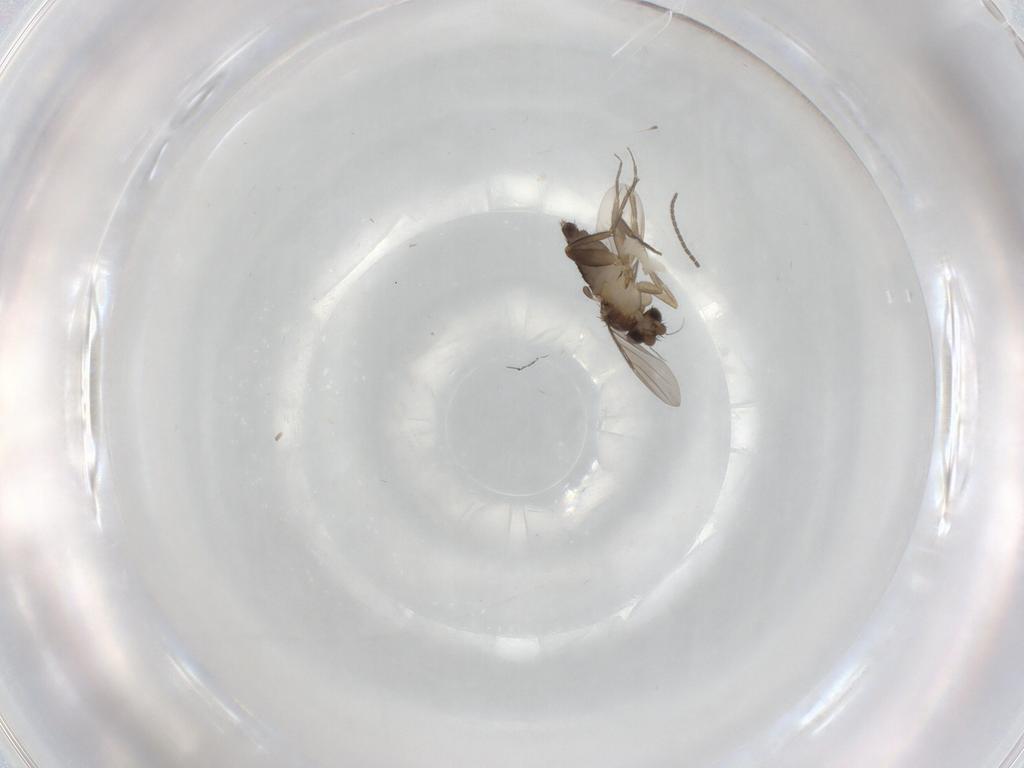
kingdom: Animalia
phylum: Arthropoda
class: Insecta
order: Diptera
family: Phoridae
